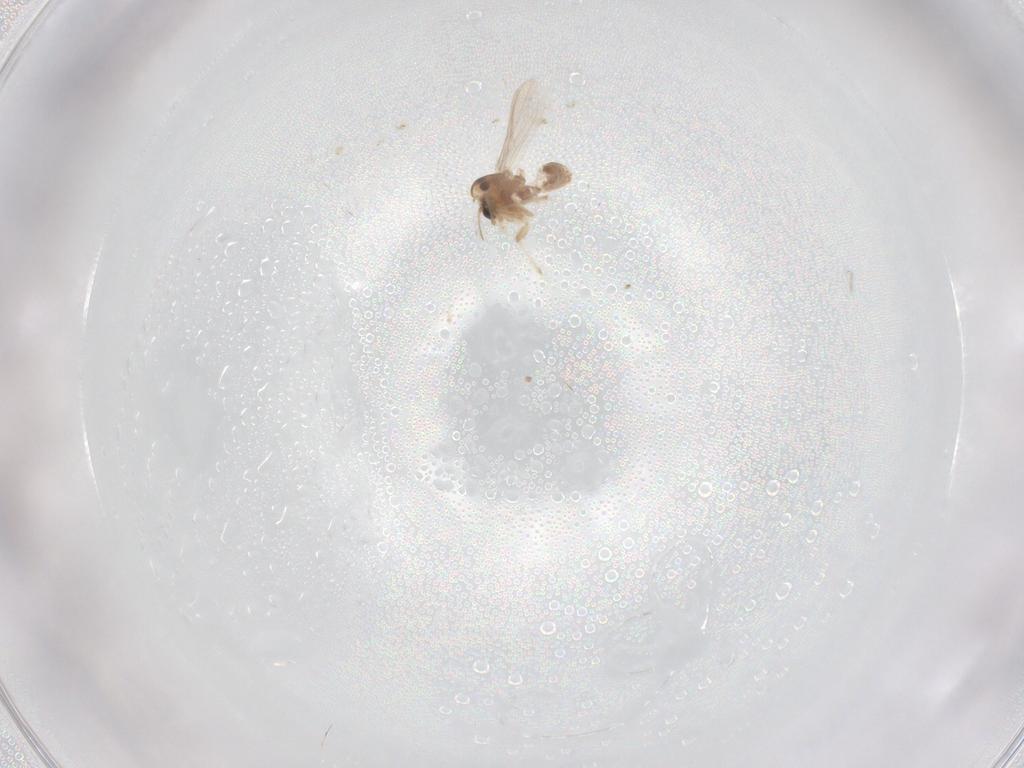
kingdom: Animalia
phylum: Arthropoda
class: Insecta
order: Diptera
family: Chironomidae
